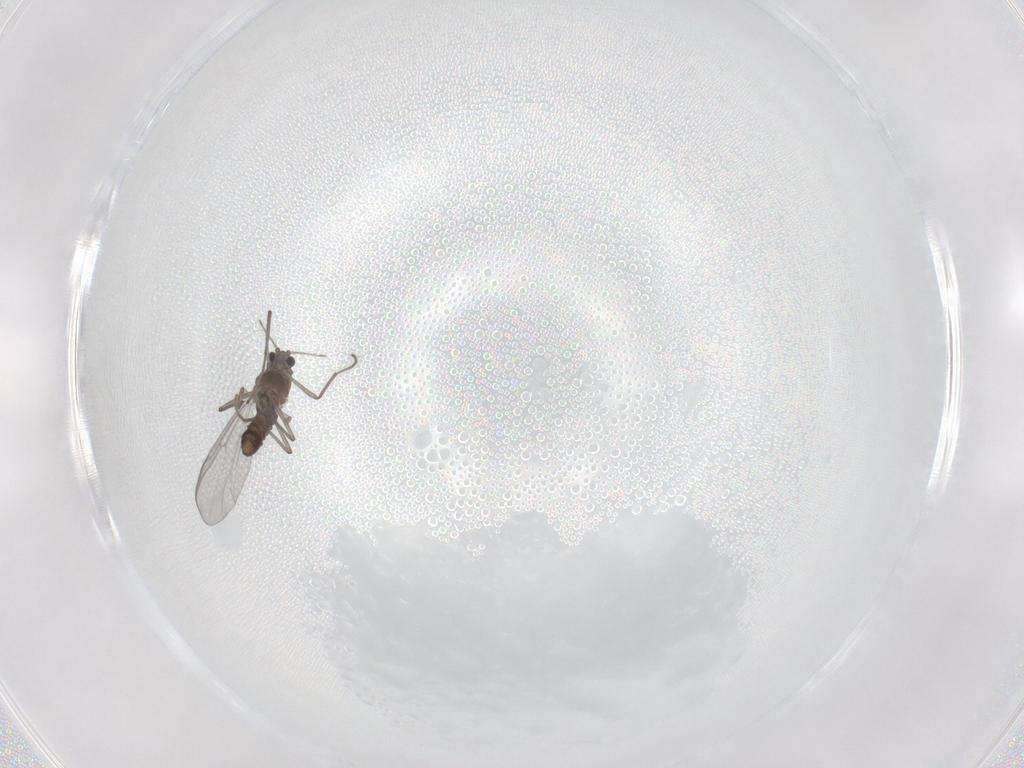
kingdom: Animalia
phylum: Arthropoda
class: Insecta
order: Diptera
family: Chironomidae
